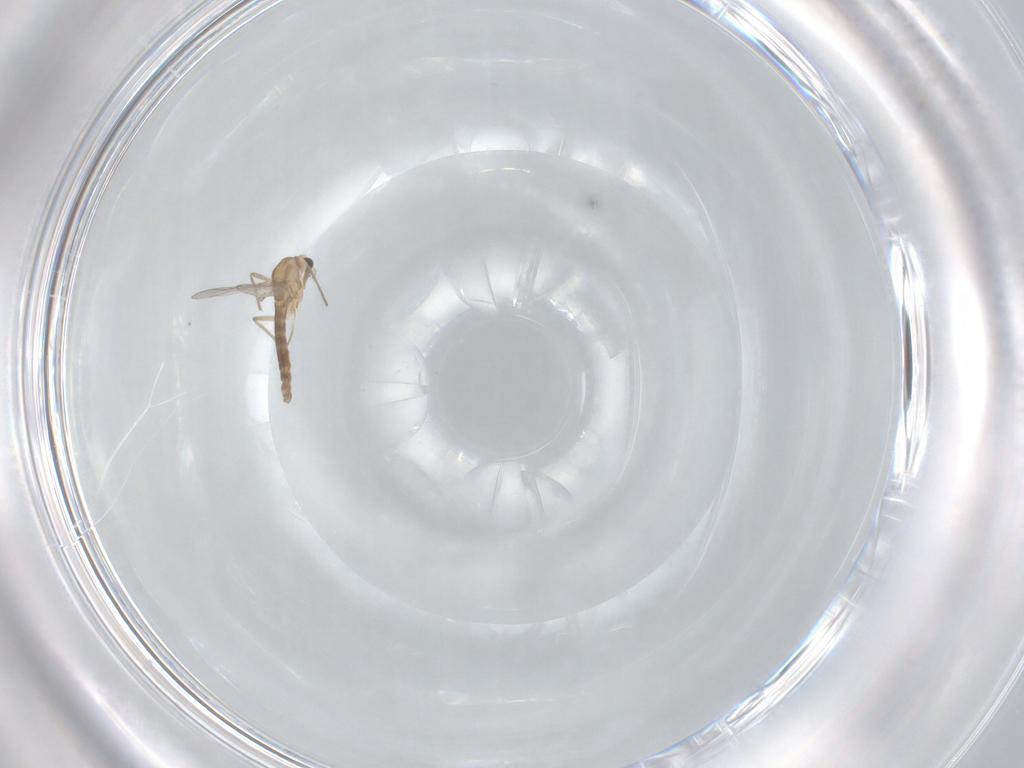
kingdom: Animalia
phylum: Arthropoda
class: Insecta
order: Diptera
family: Chironomidae
